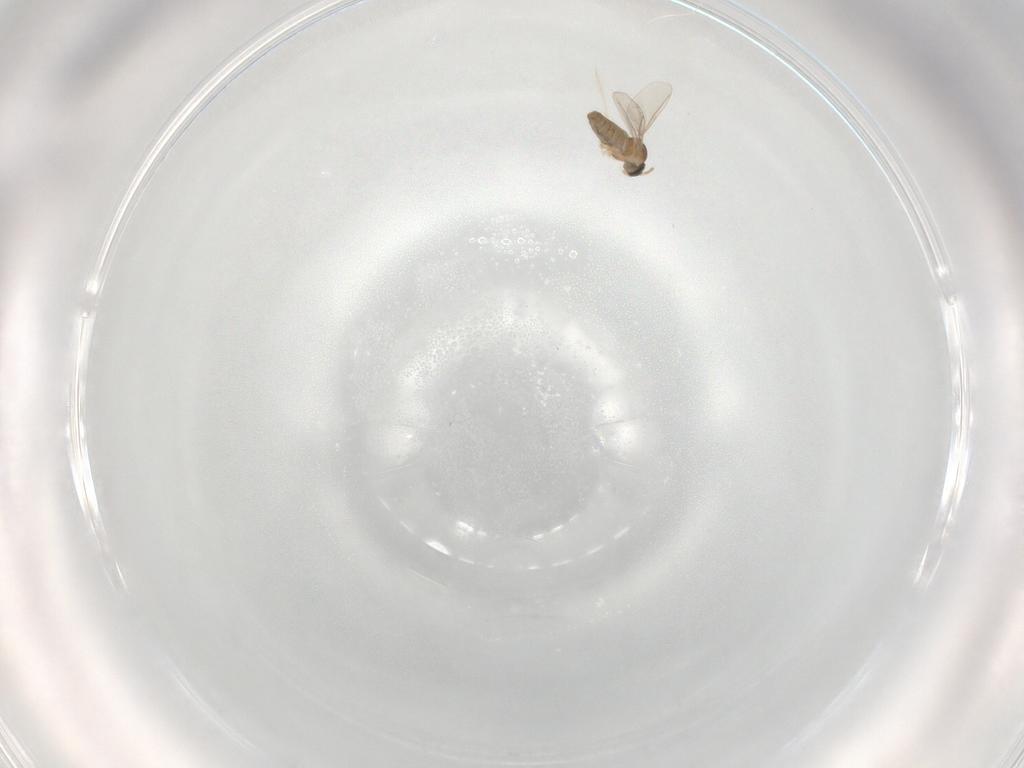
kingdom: Animalia
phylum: Arthropoda
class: Insecta
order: Diptera
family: Cecidomyiidae
